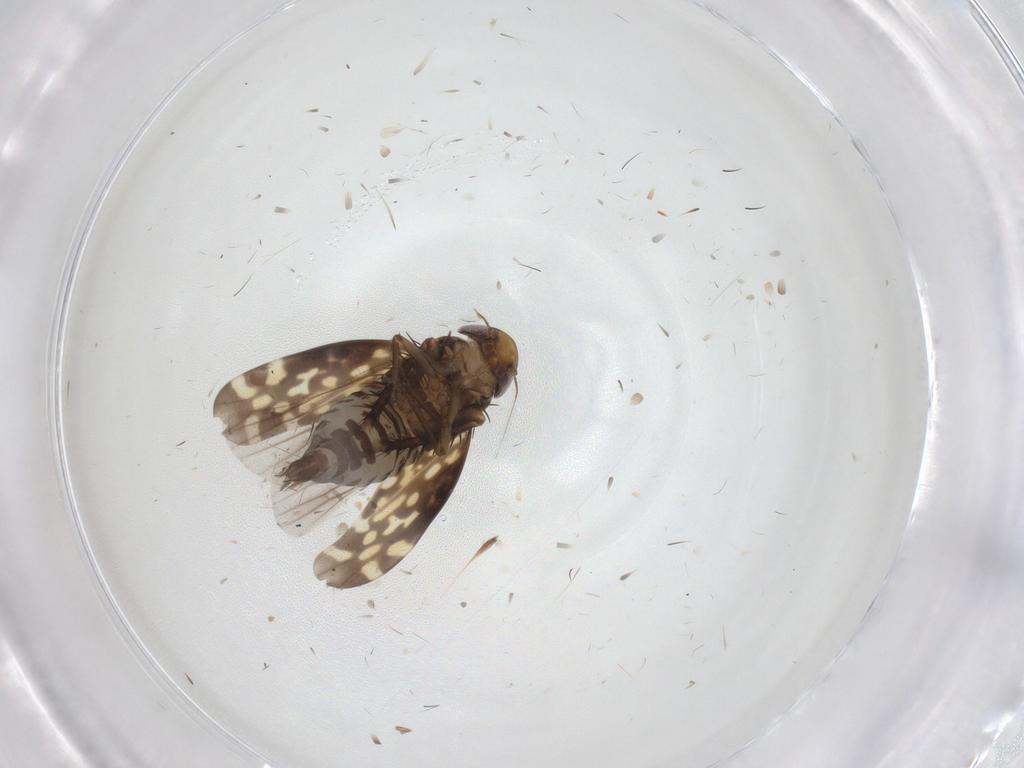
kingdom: Animalia
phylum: Arthropoda
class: Insecta
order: Hemiptera
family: Cicadellidae
